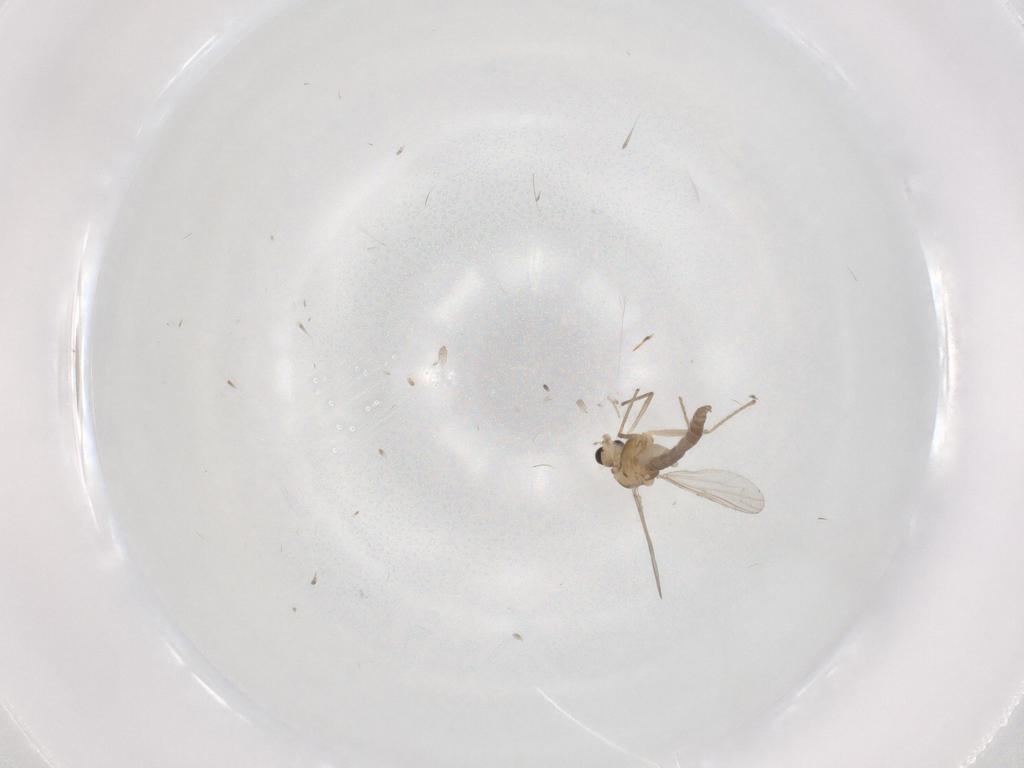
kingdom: Animalia
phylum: Arthropoda
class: Insecta
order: Diptera
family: Chironomidae
